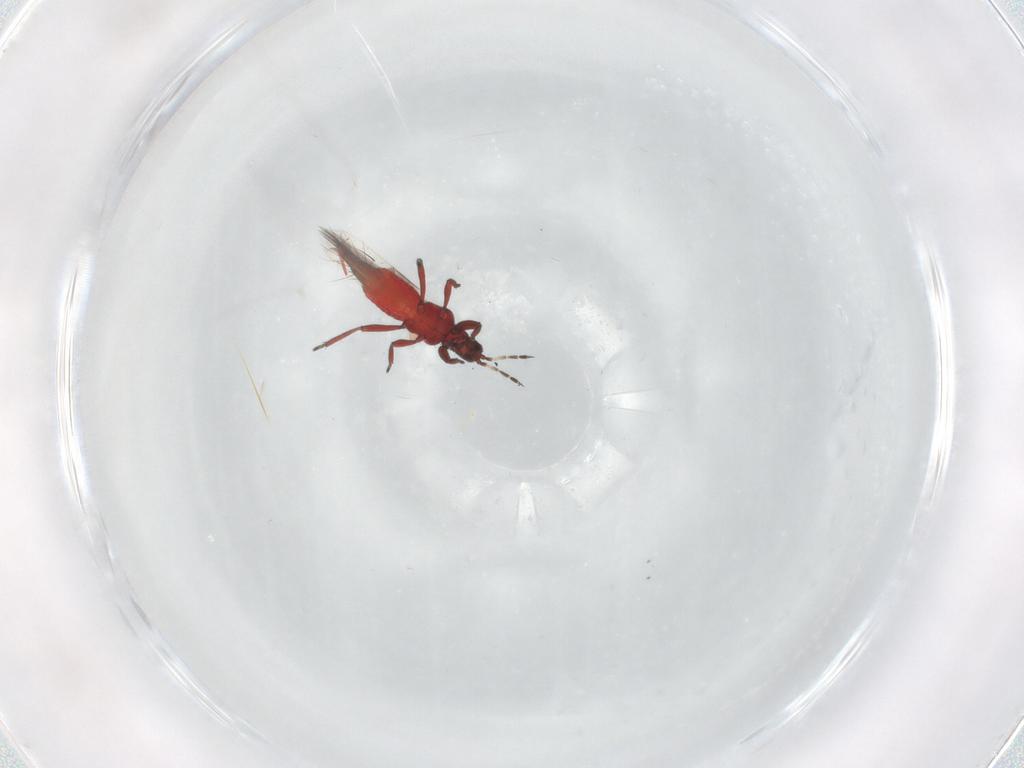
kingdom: Animalia
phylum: Arthropoda
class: Insecta
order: Thysanoptera
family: Aeolothripidae
